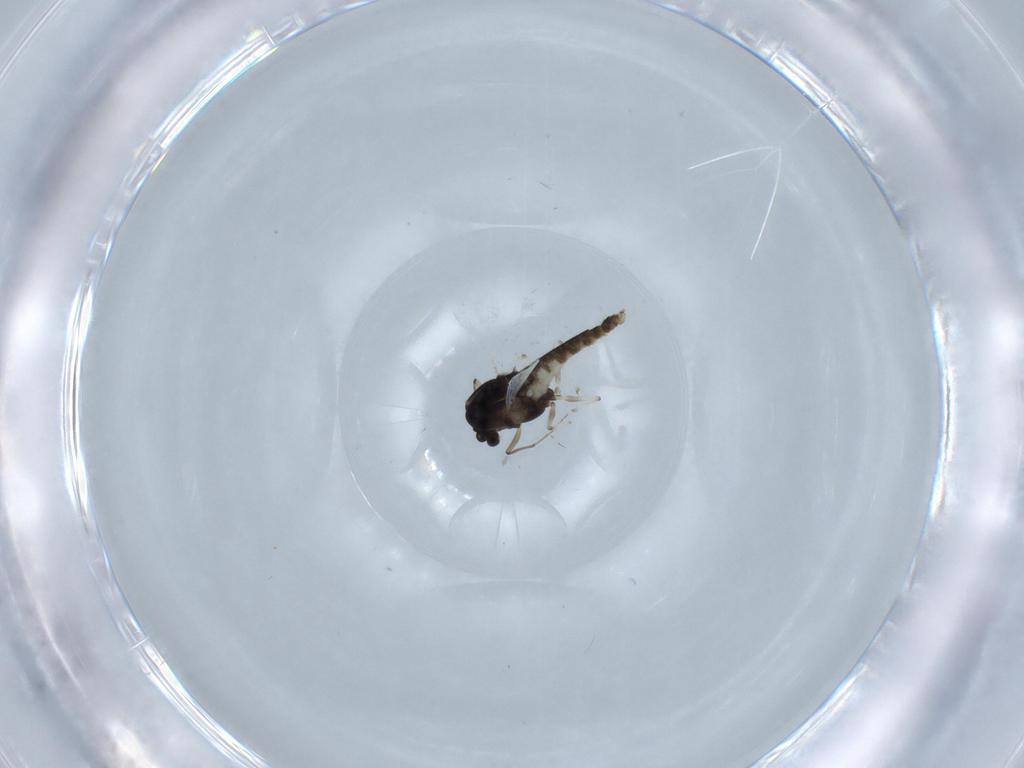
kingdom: Animalia
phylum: Arthropoda
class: Insecta
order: Diptera
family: Chironomidae
